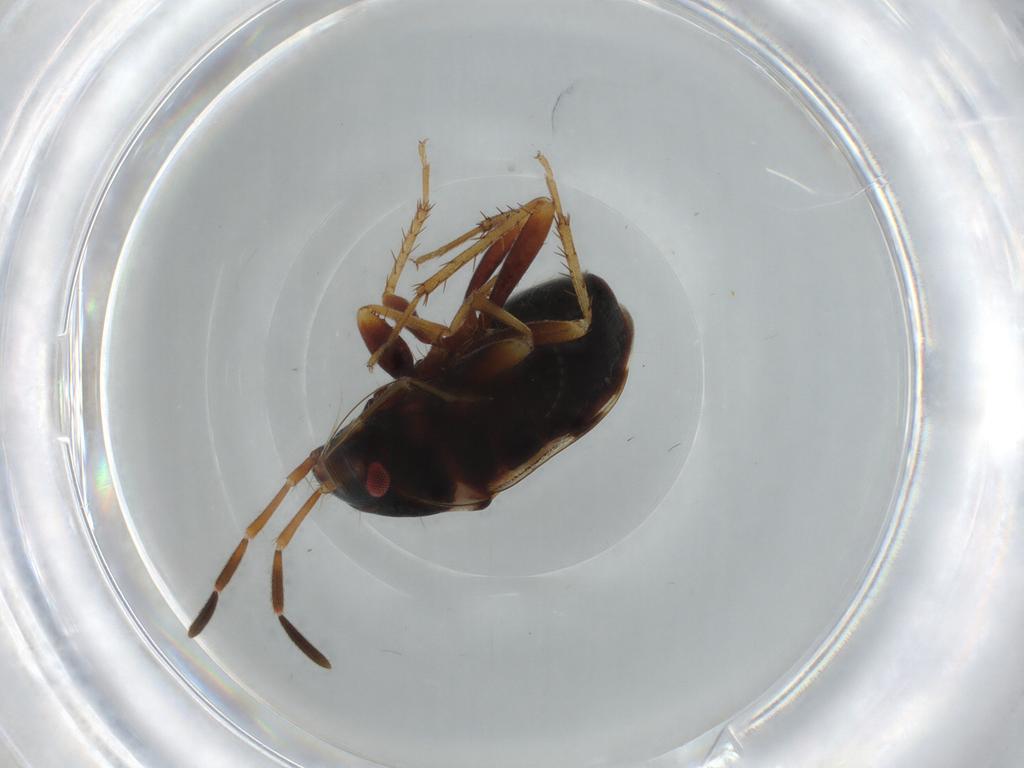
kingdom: Animalia
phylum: Arthropoda
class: Insecta
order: Hemiptera
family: Rhyparochromidae
